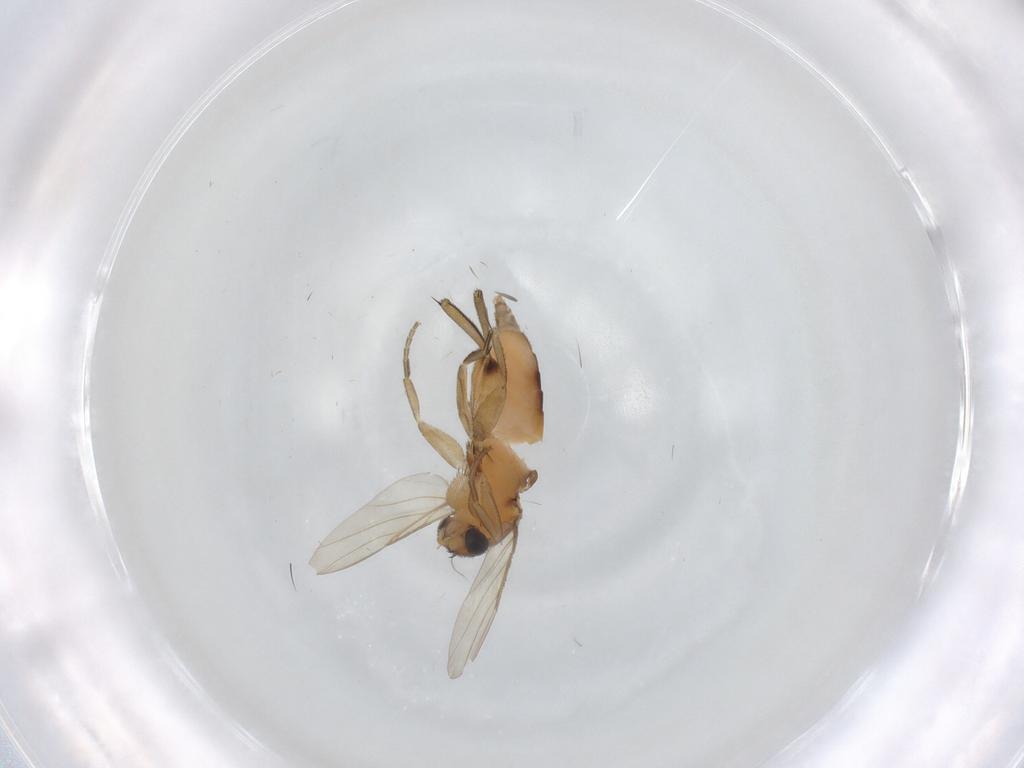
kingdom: Animalia
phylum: Arthropoda
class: Insecta
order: Diptera
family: Phoridae
